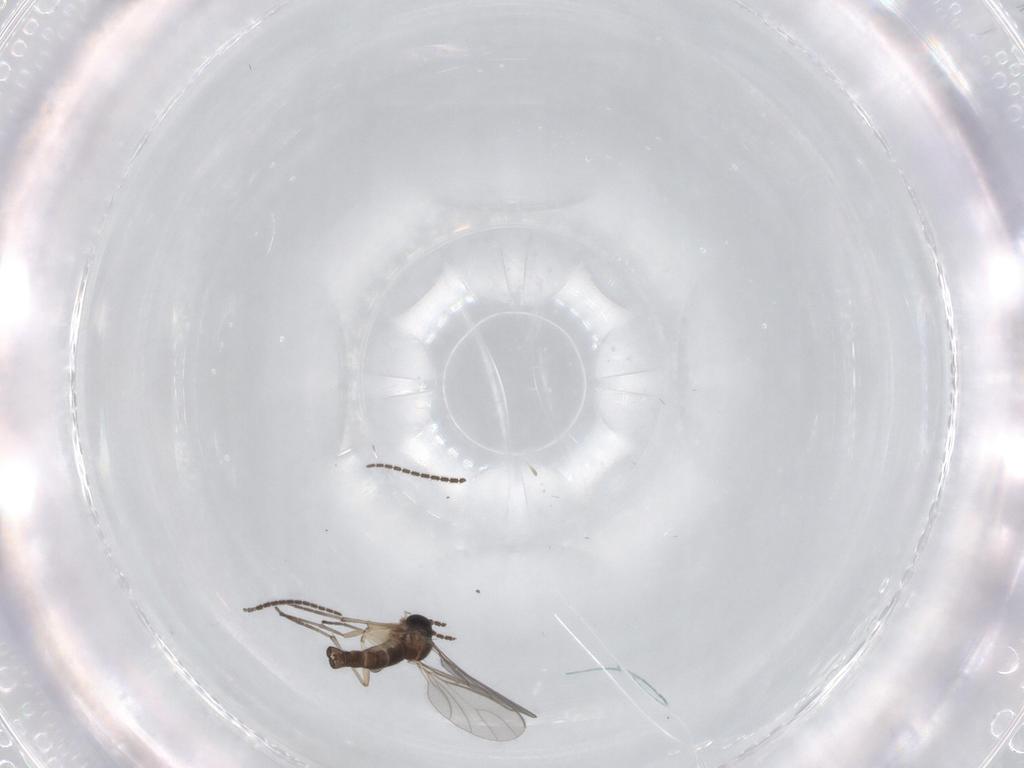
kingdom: Animalia
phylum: Arthropoda
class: Insecta
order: Diptera
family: Sciaridae
